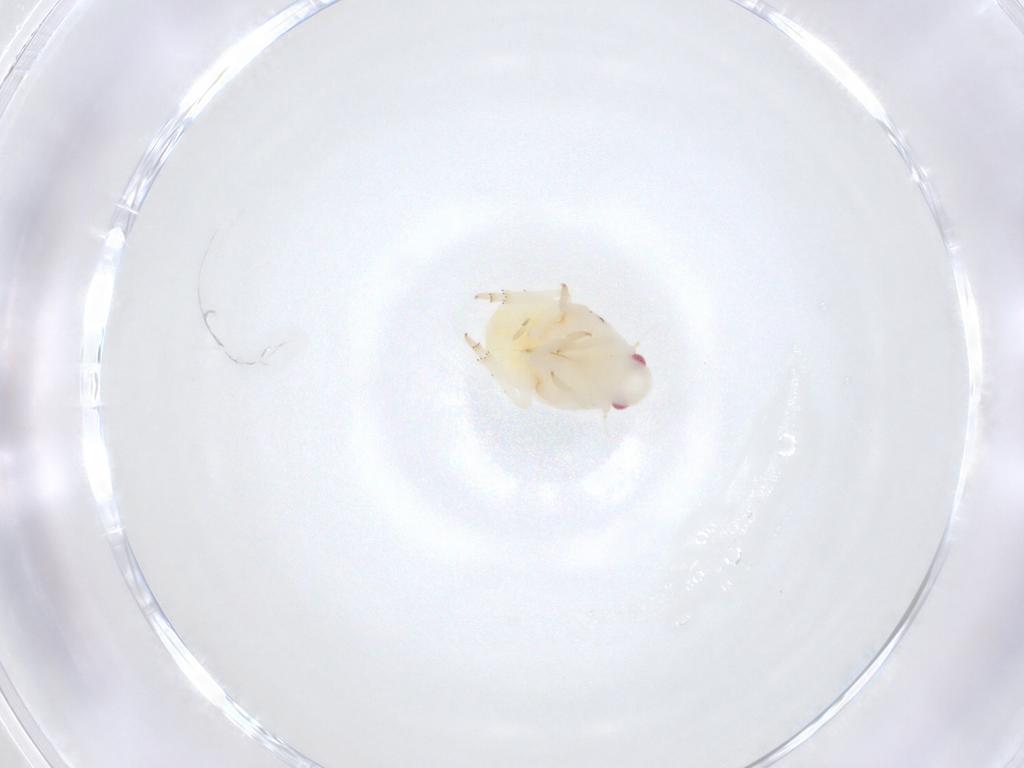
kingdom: Animalia
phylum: Arthropoda
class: Insecta
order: Hemiptera
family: Flatidae
